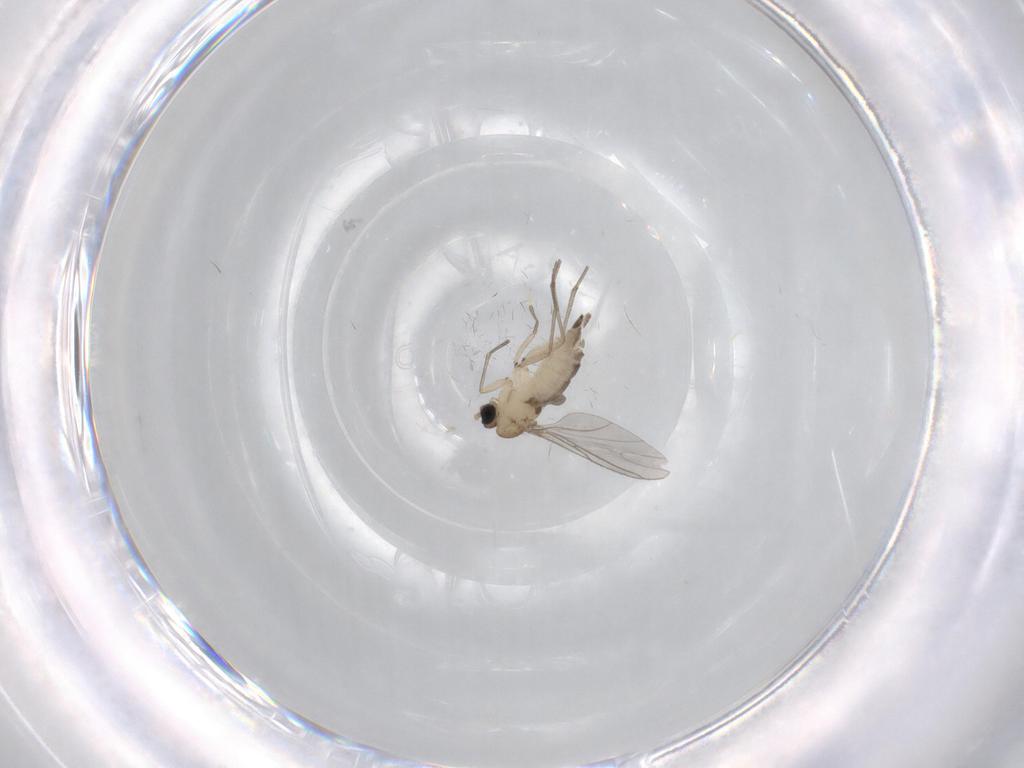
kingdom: Animalia
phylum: Arthropoda
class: Insecta
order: Diptera
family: Sciaridae
